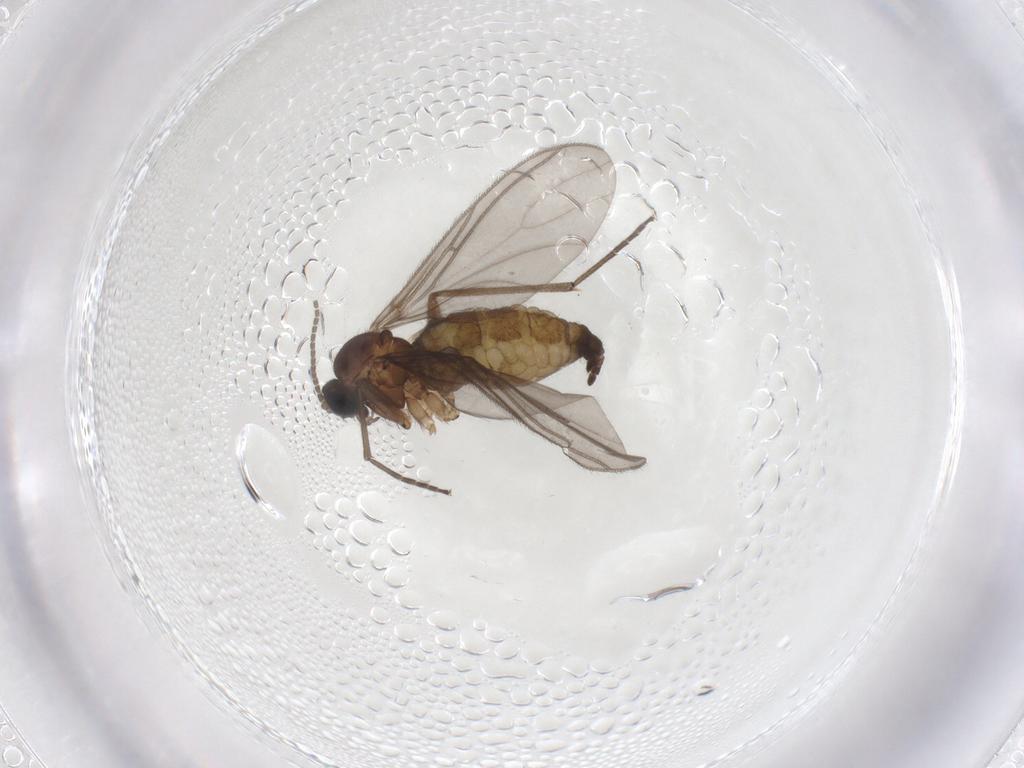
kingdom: Animalia
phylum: Arthropoda
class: Insecta
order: Diptera
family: Sciaridae
